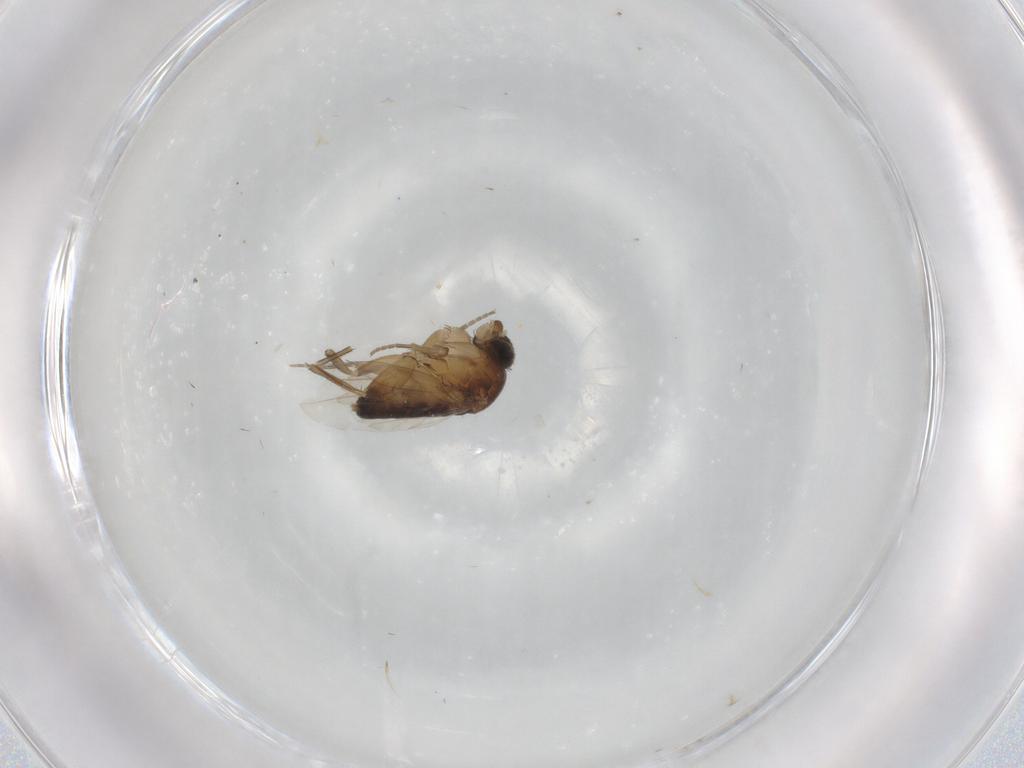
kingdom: Animalia
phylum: Arthropoda
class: Insecta
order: Diptera
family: Phoridae
